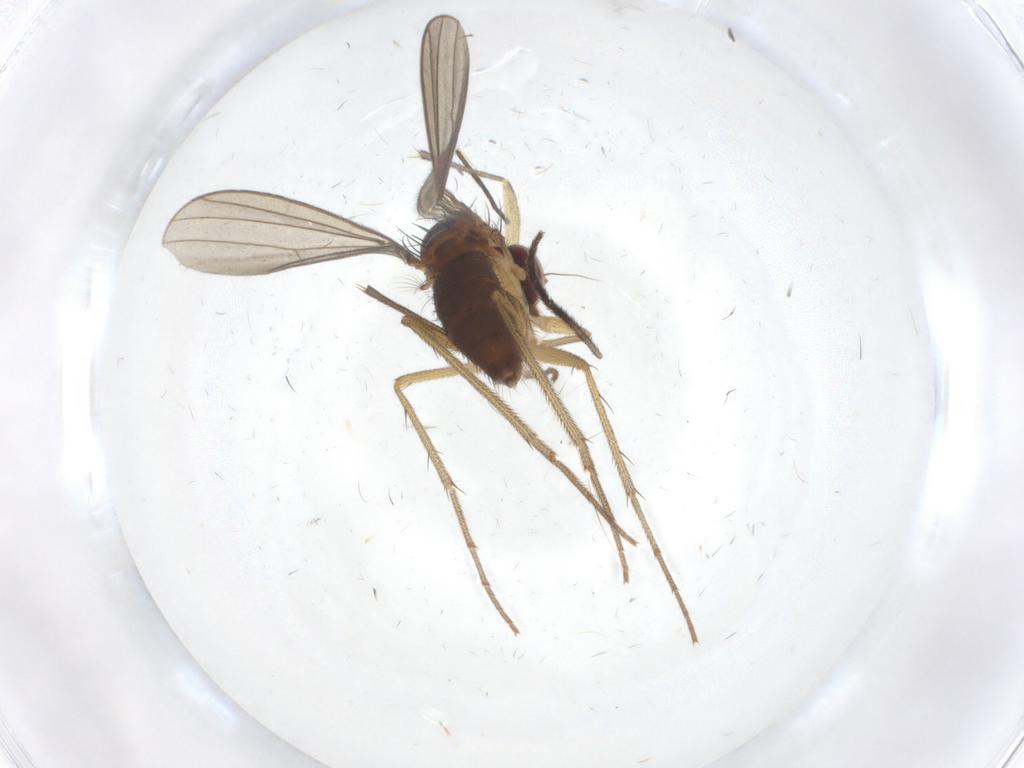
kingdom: Animalia
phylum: Arthropoda
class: Insecta
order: Diptera
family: Dolichopodidae
